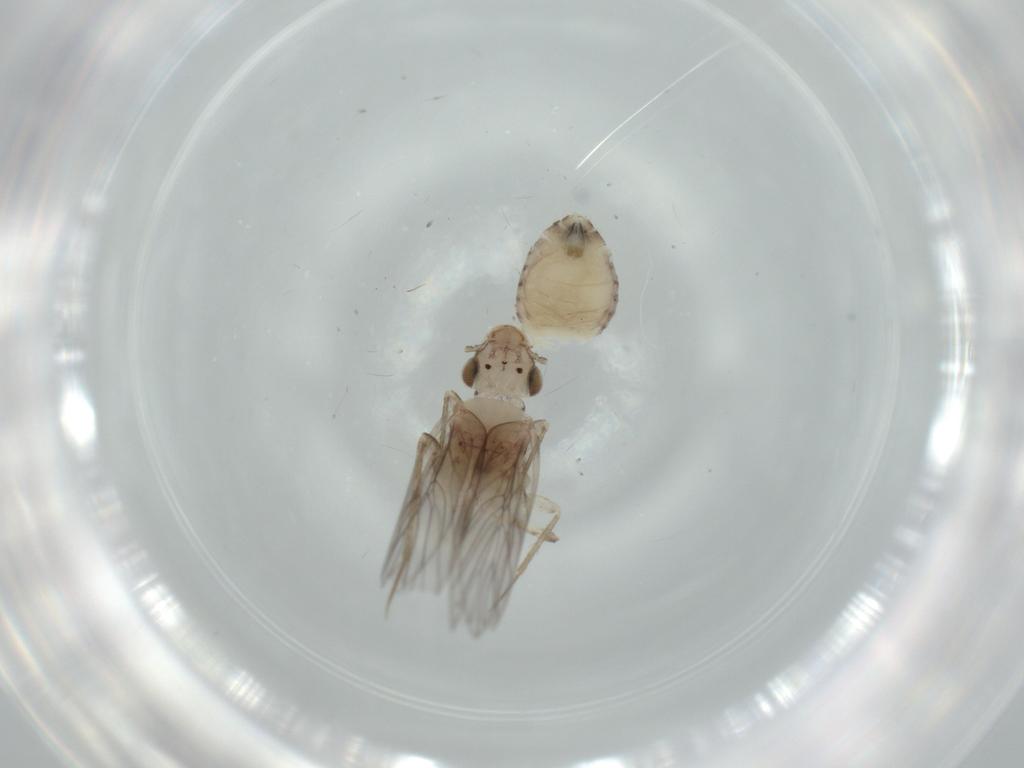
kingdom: Animalia
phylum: Arthropoda
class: Insecta
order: Psocodea
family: Lepidopsocidae
